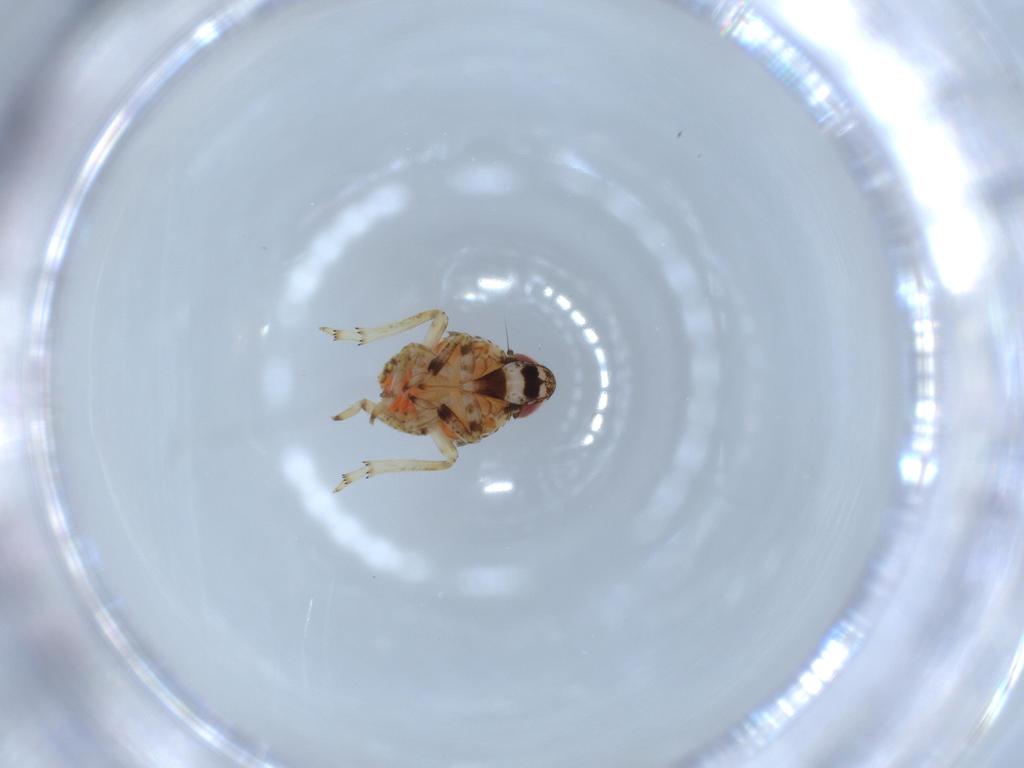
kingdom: Animalia
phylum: Arthropoda
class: Insecta
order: Hemiptera
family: Issidae
